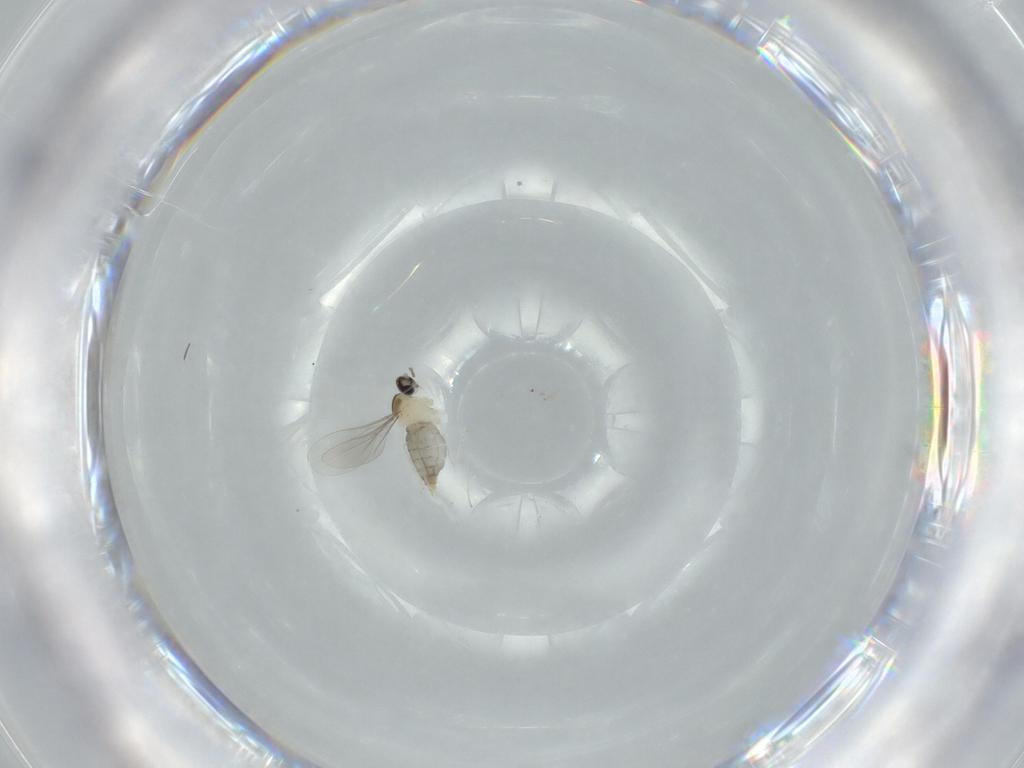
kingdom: Animalia
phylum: Arthropoda
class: Insecta
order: Diptera
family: Cecidomyiidae
